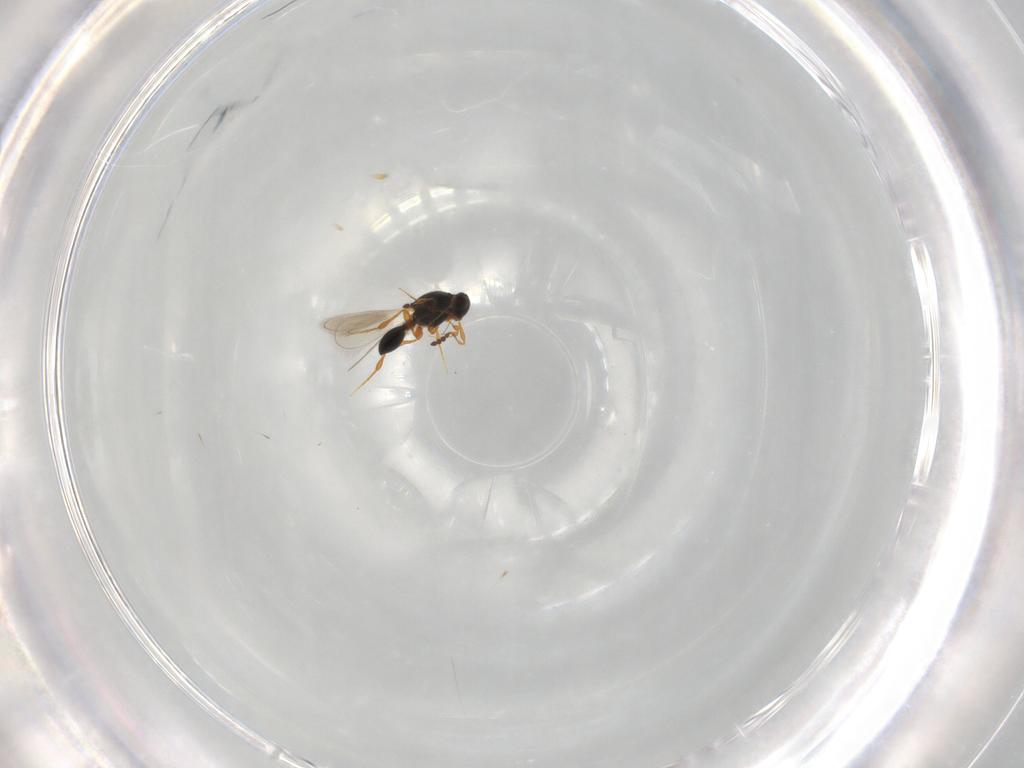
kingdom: Animalia
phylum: Arthropoda
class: Insecta
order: Hymenoptera
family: Platygastridae
